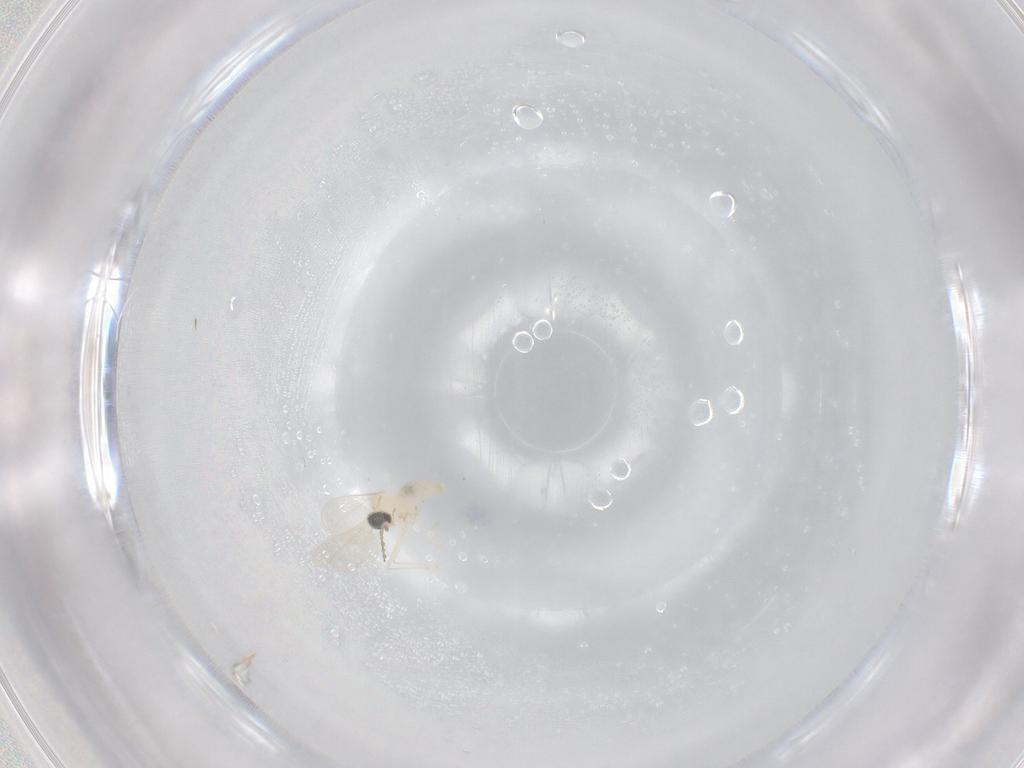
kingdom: Animalia
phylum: Arthropoda
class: Insecta
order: Diptera
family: Cecidomyiidae
